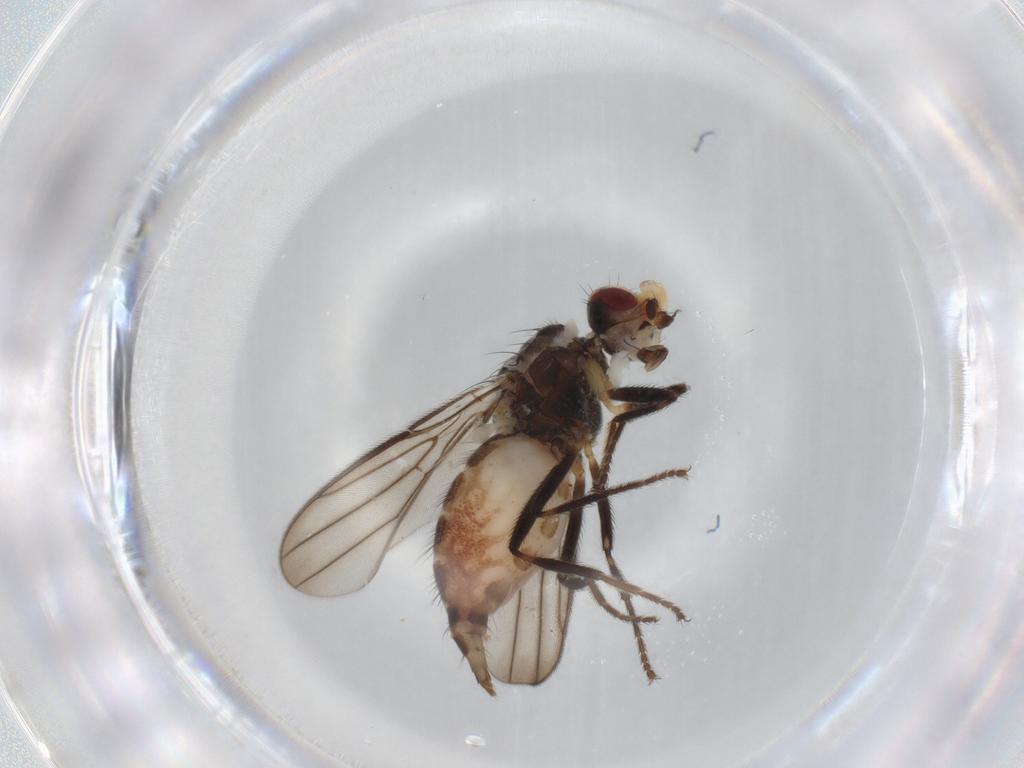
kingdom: Animalia
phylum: Arthropoda
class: Insecta
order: Diptera
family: Chloropidae
